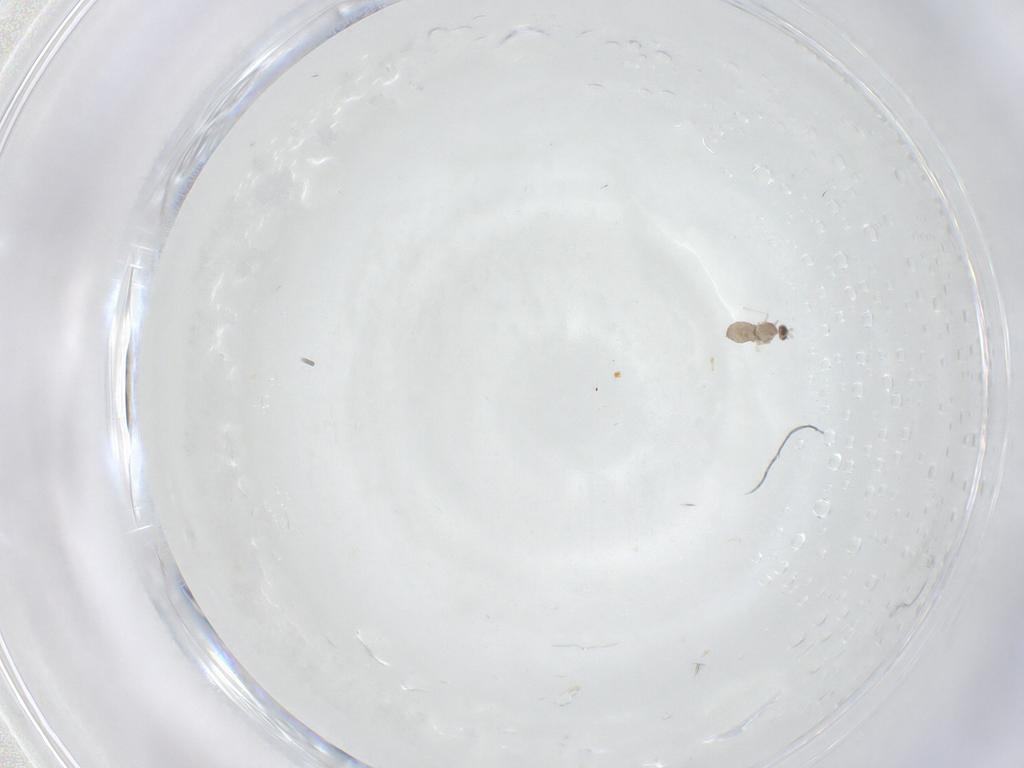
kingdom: Animalia
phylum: Arthropoda
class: Insecta
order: Diptera
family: Cecidomyiidae
